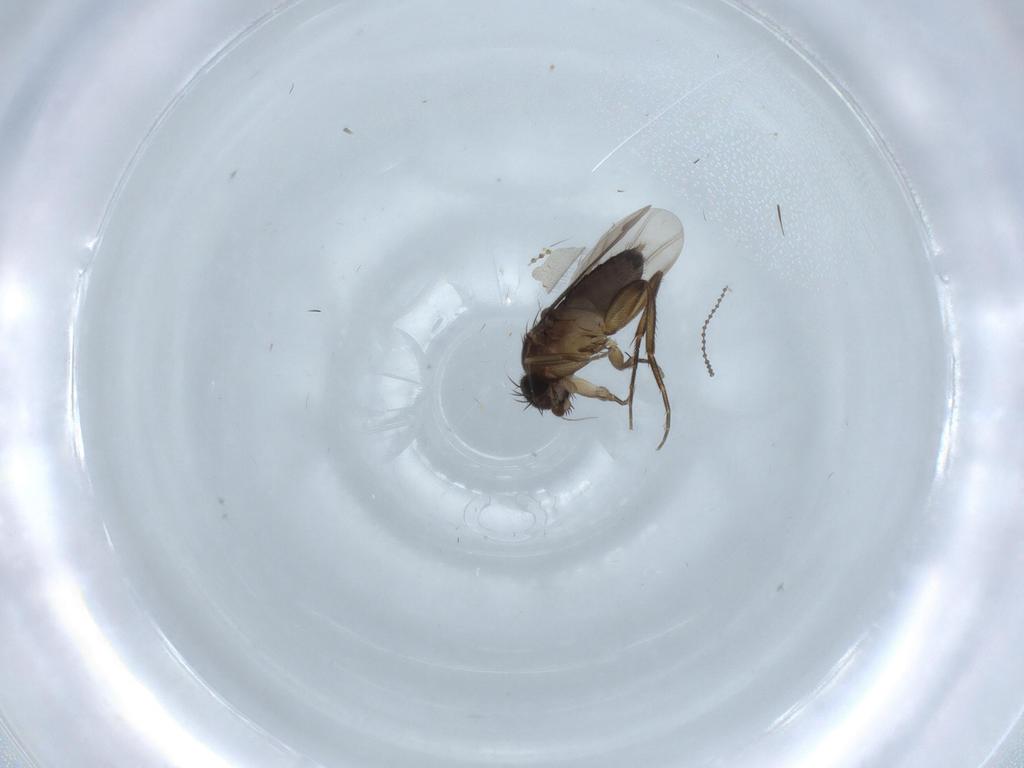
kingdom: Animalia
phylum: Arthropoda
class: Insecta
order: Diptera
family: Phoridae
